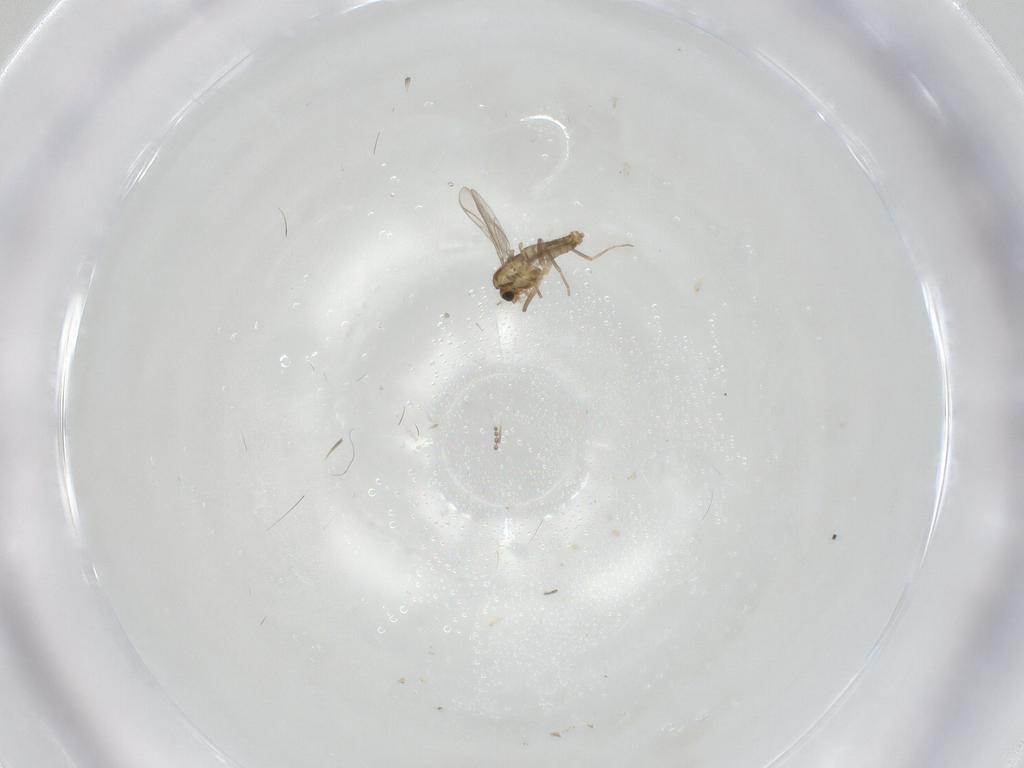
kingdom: Animalia
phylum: Arthropoda
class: Insecta
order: Diptera
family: Chironomidae
